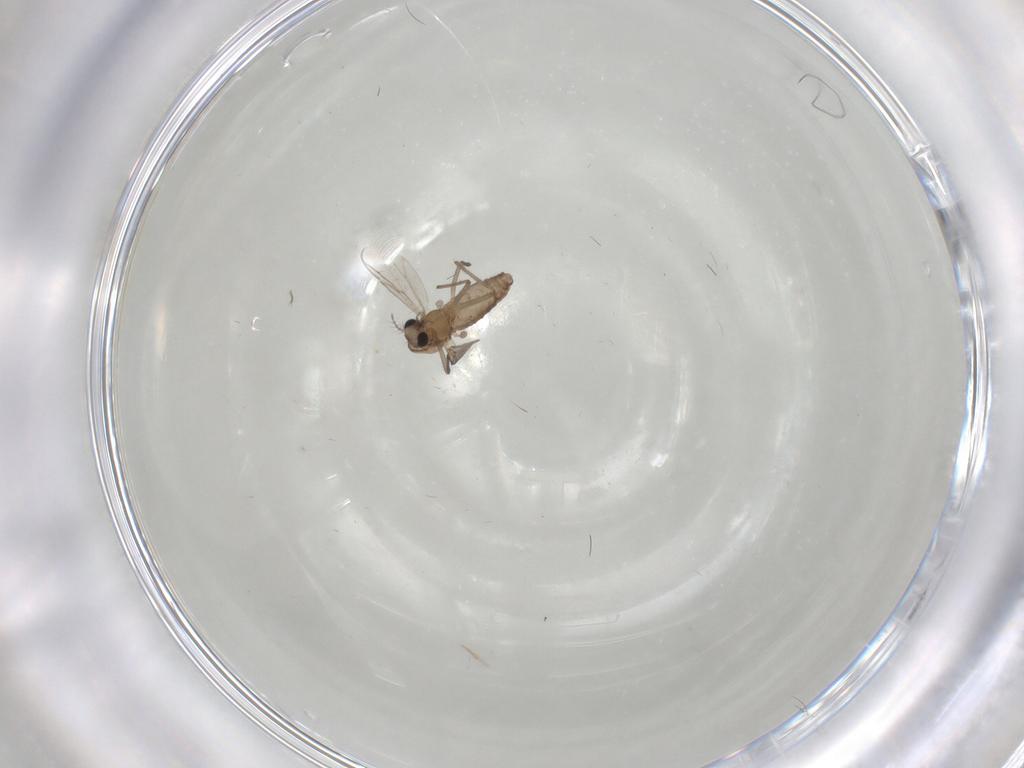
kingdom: Animalia
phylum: Arthropoda
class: Insecta
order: Diptera
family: Chironomidae
